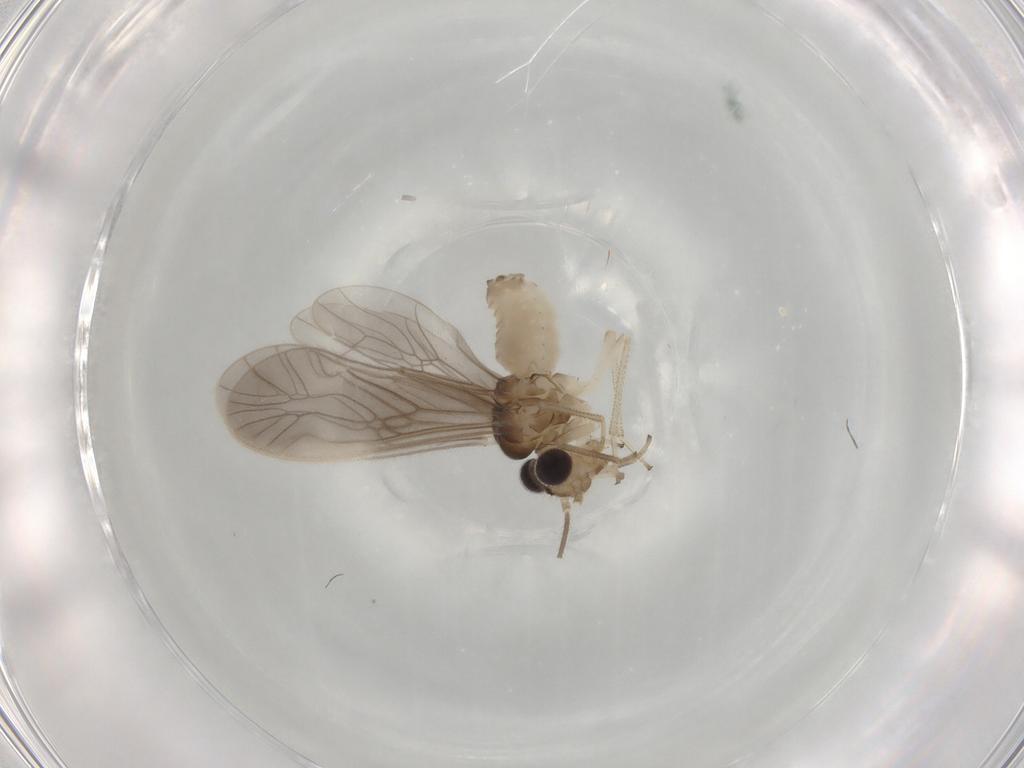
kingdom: Animalia
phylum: Arthropoda
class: Insecta
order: Psocodea
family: Caeciliusidae
